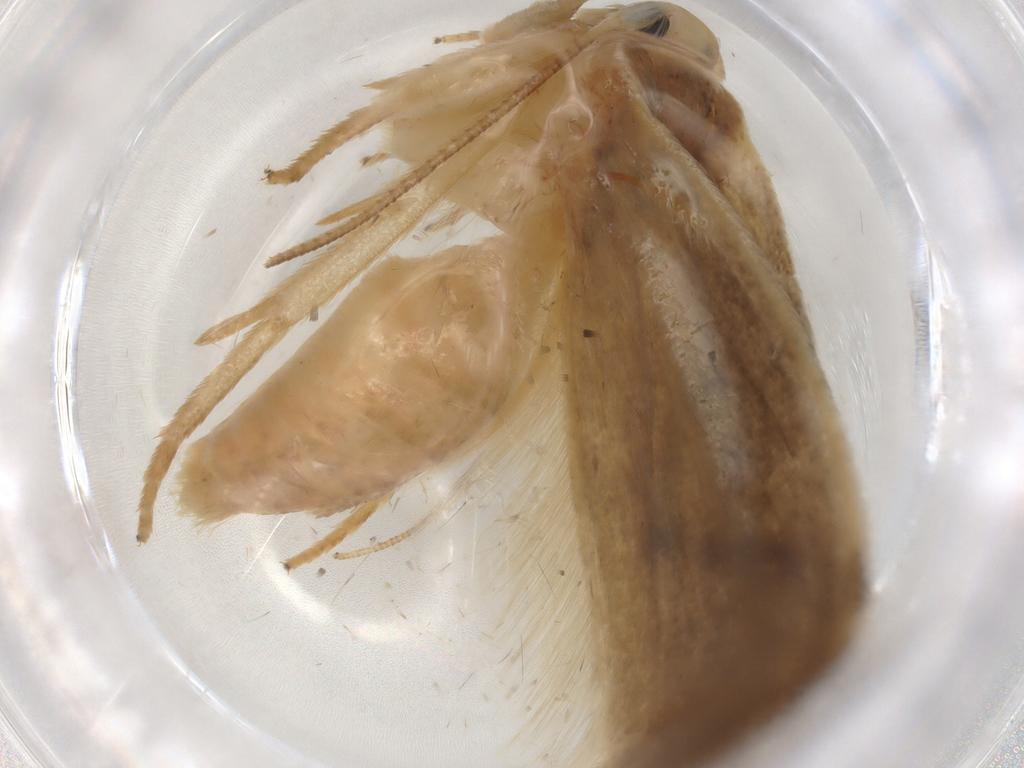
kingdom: Animalia
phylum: Arthropoda
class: Insecta
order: Lepidoptera
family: Depressariidae
